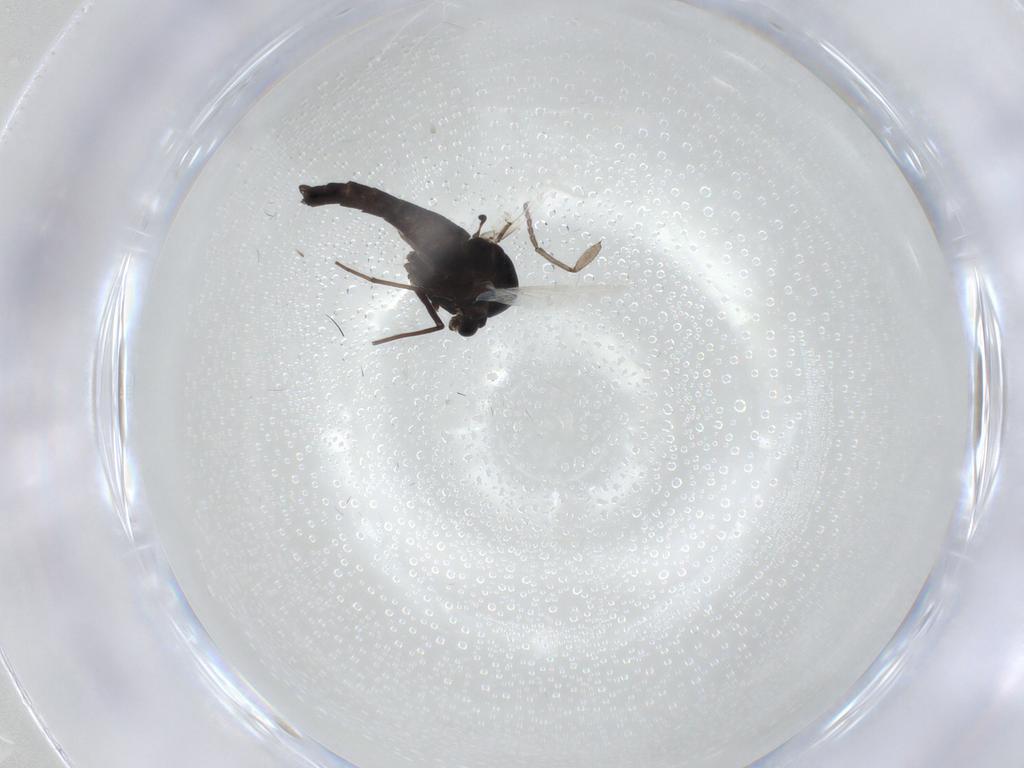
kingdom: Animalia
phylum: Arthropoda
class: Insecta
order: Diptera
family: Sciaridae
